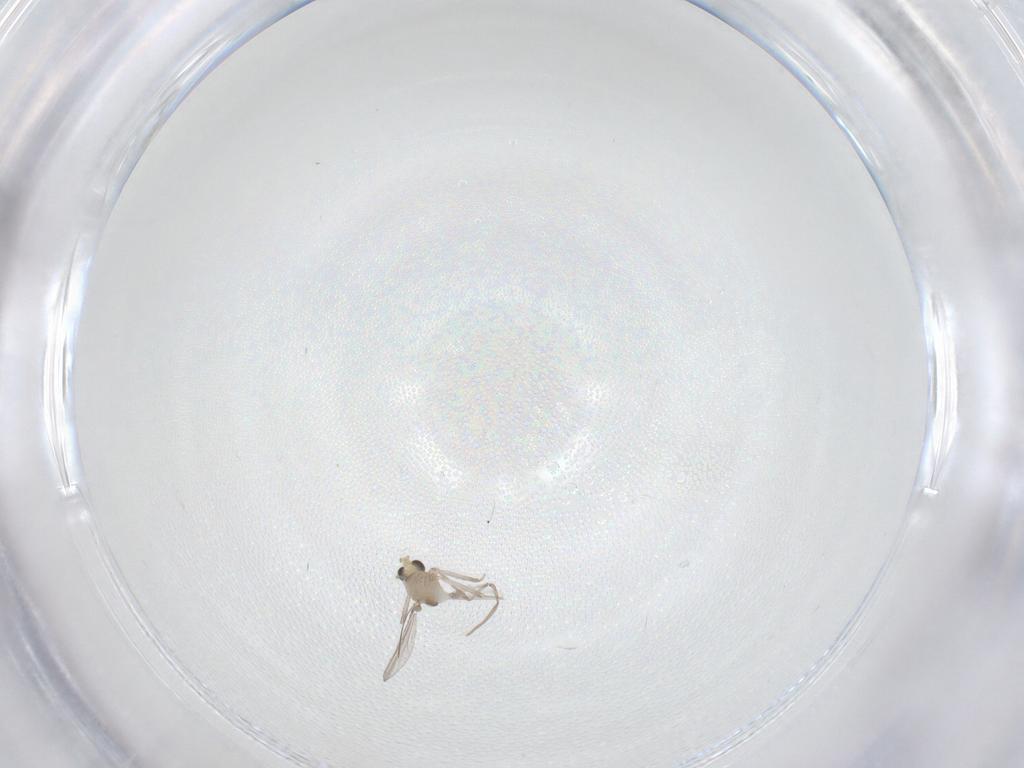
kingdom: Animalia
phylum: Arthropoda
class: Insecta
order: Diptera
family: Chironomidae
